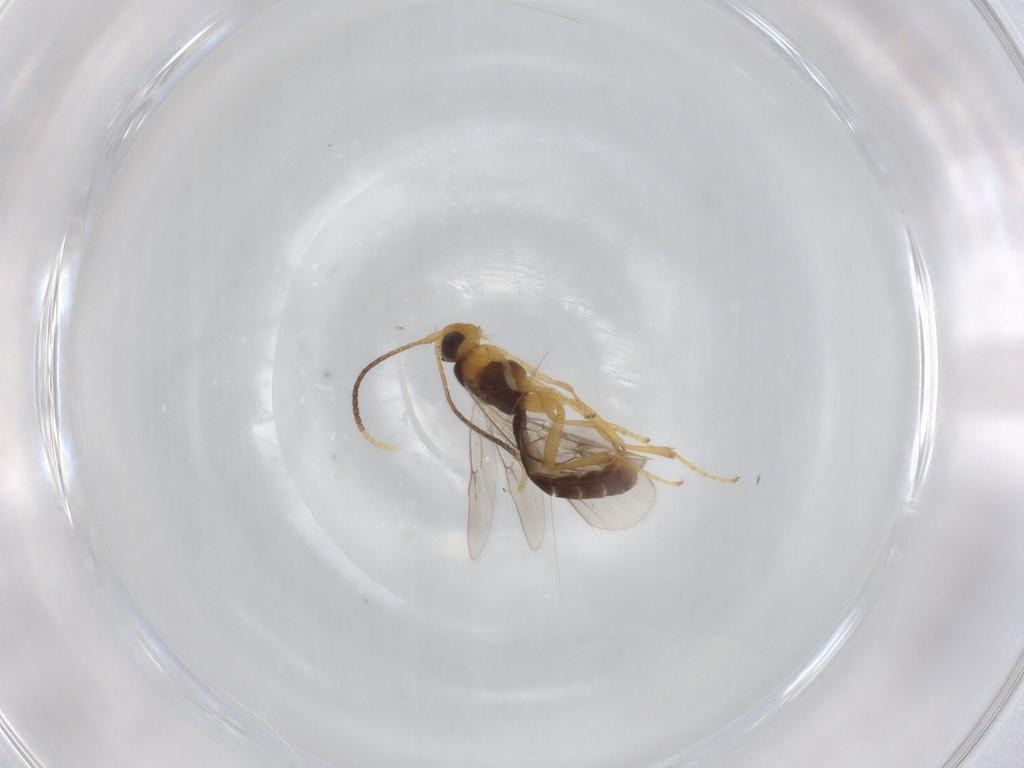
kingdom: Animalia
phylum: Arthropoda
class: Insecta
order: Hymenoptera
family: Ichneumonidae
